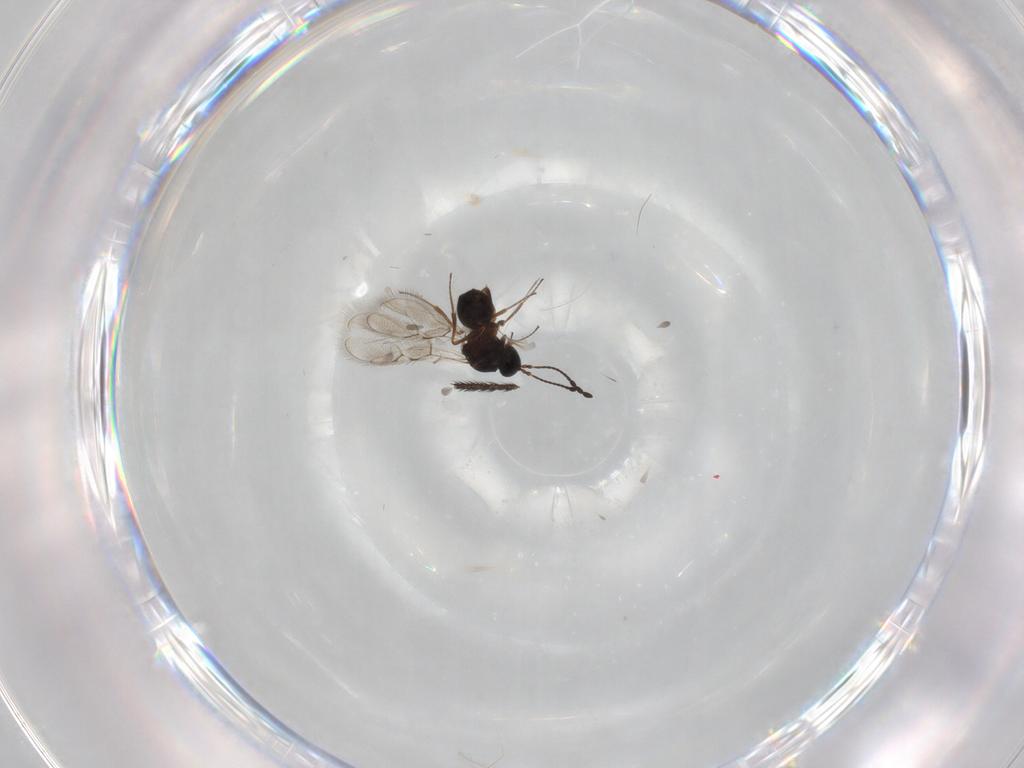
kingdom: Animalia
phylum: Arthropoda
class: Insecta
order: Hymenoptera
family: Figitidae
